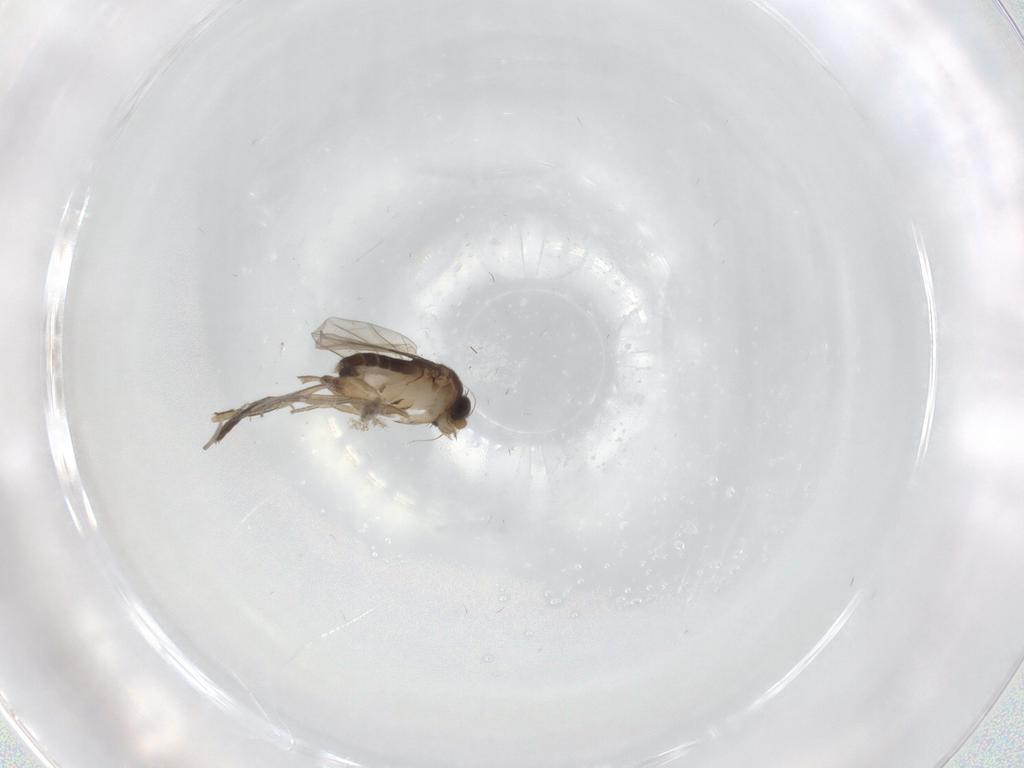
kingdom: Animalia
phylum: Arthropoda
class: Insecta
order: Diptera
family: Phoridae
